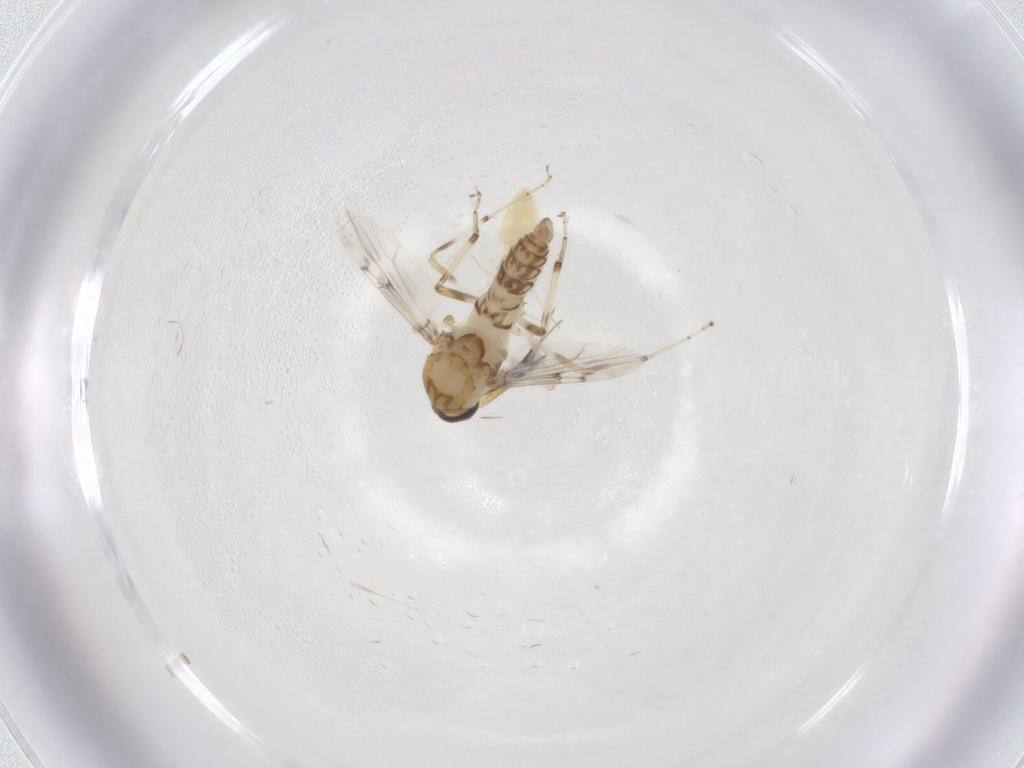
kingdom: Animalia
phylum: Arthropoda
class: Insecta
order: Diptera
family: Ceratopogonidae
